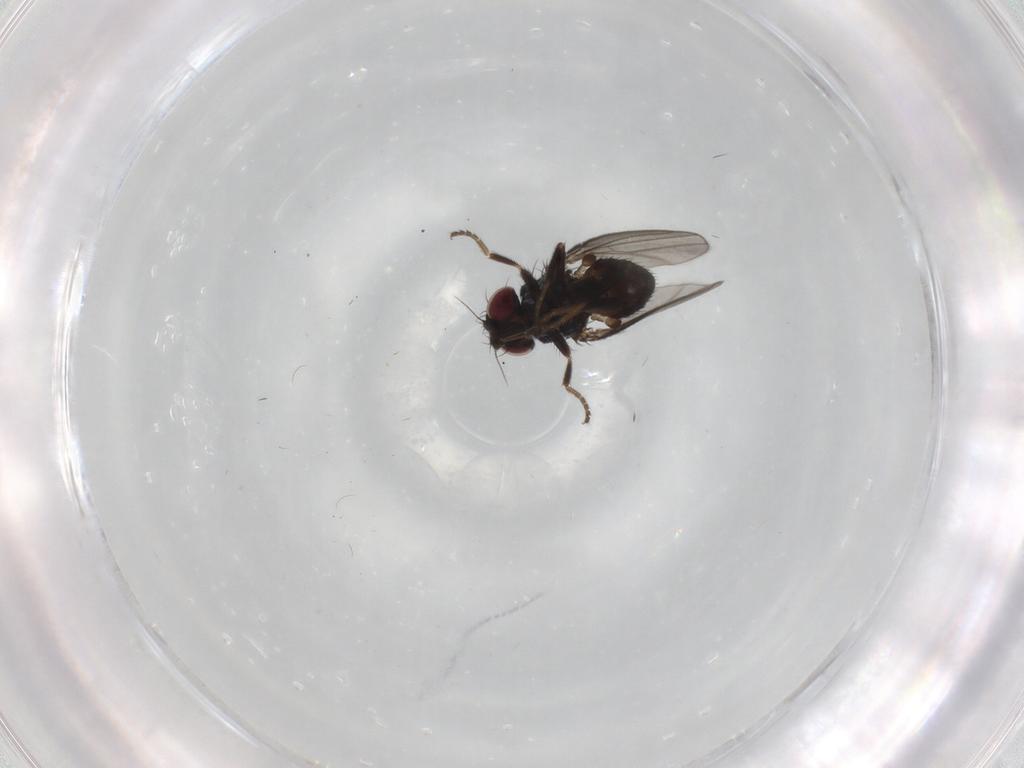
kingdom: Animalia
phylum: Arthropoda
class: Insecta
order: Diptera
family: Milichiidae
